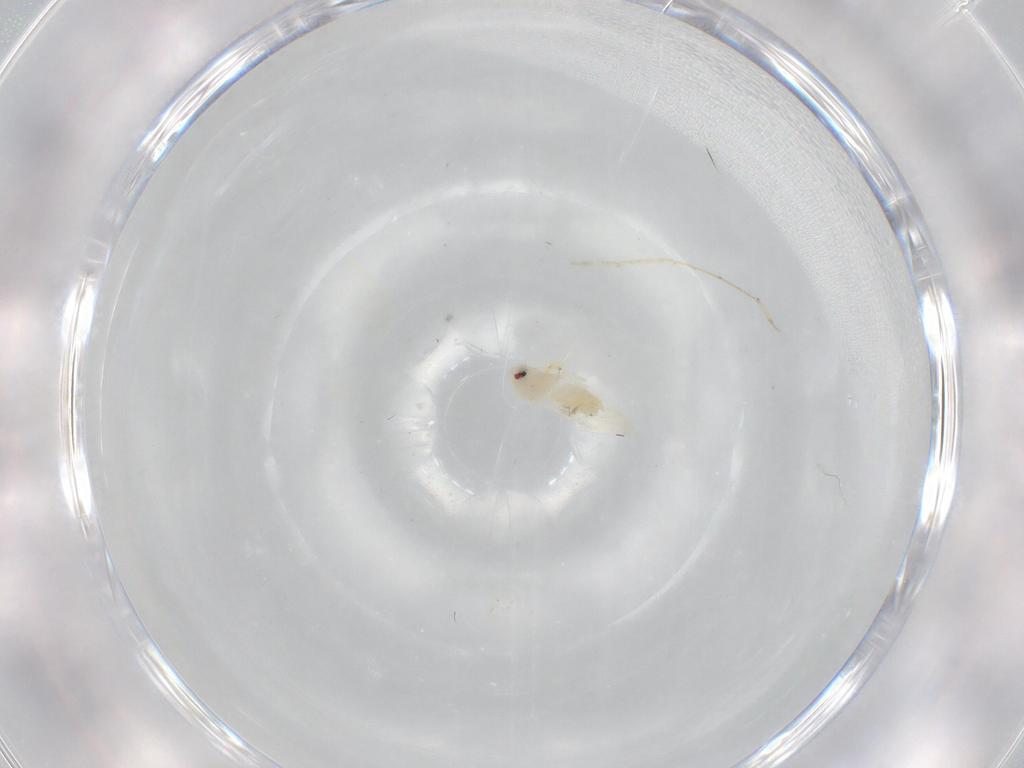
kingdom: Animalia
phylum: Arthropoda
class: Insecta
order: Hemiptera
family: Aleyrodidae
